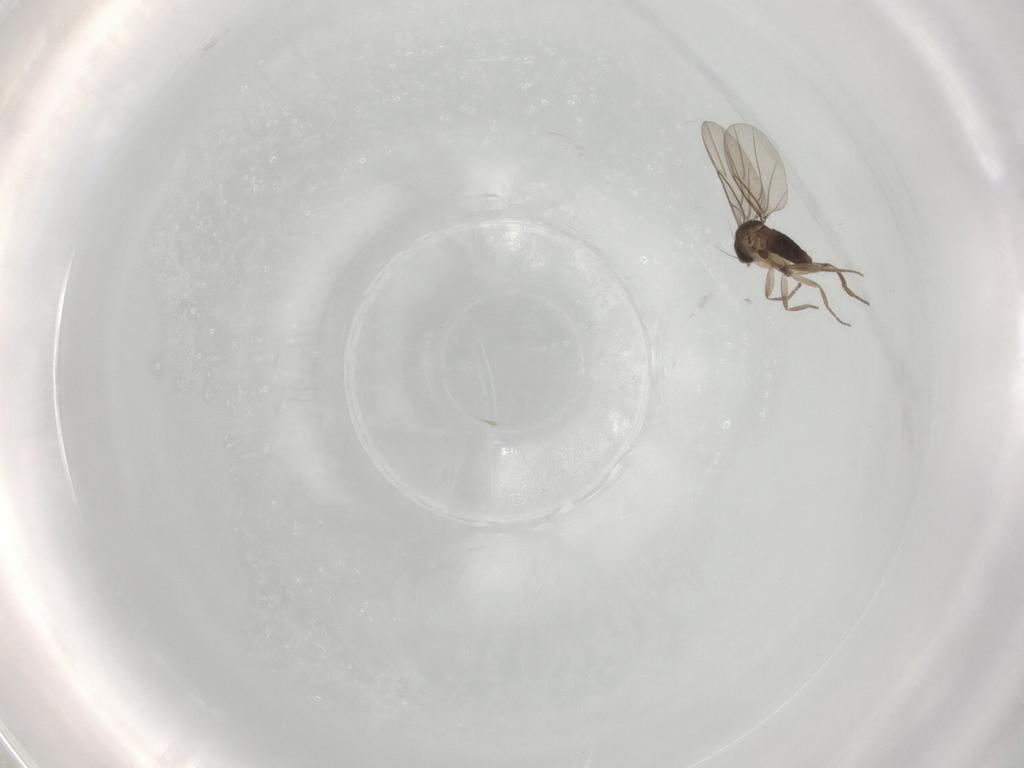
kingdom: Animalia
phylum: Arthropoda
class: Insecta
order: Diptera
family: Phoridae
